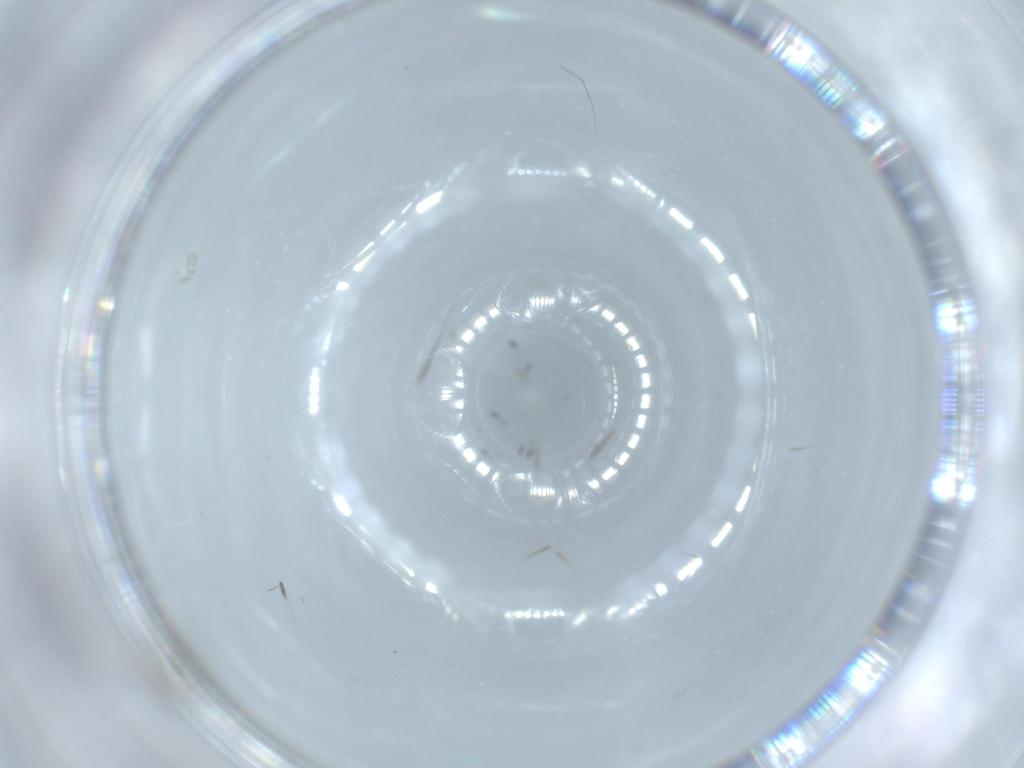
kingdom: Animalia
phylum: Arthropoda
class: Insecta
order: Diptera
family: Cecidomyiidae
